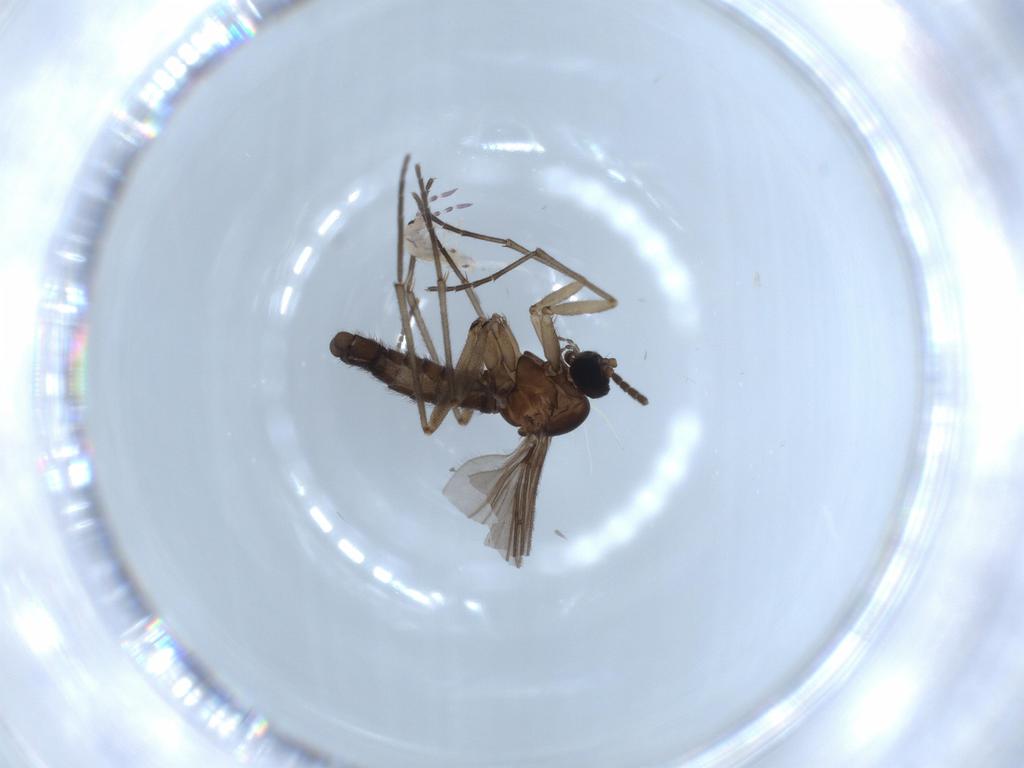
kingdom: Animalia
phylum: Arthropoda
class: Insecta
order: Diptera
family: Sciaridae
